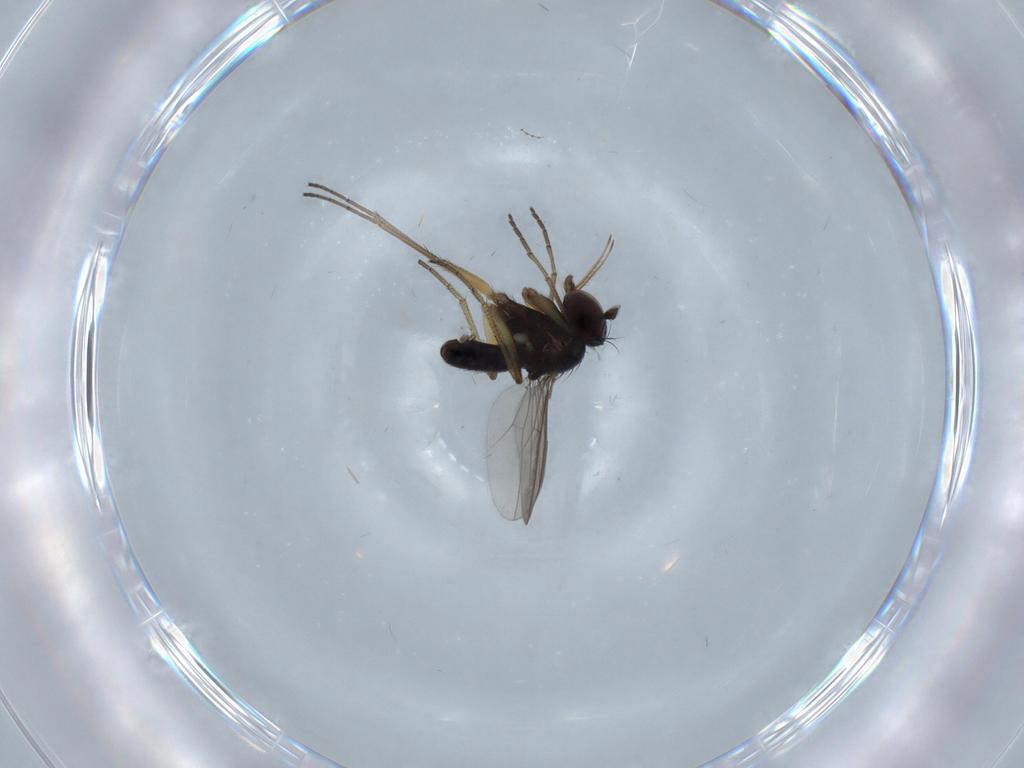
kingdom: Animalia
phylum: Arthropoda
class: Insecta
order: Diptera
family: Dolichopodidae
